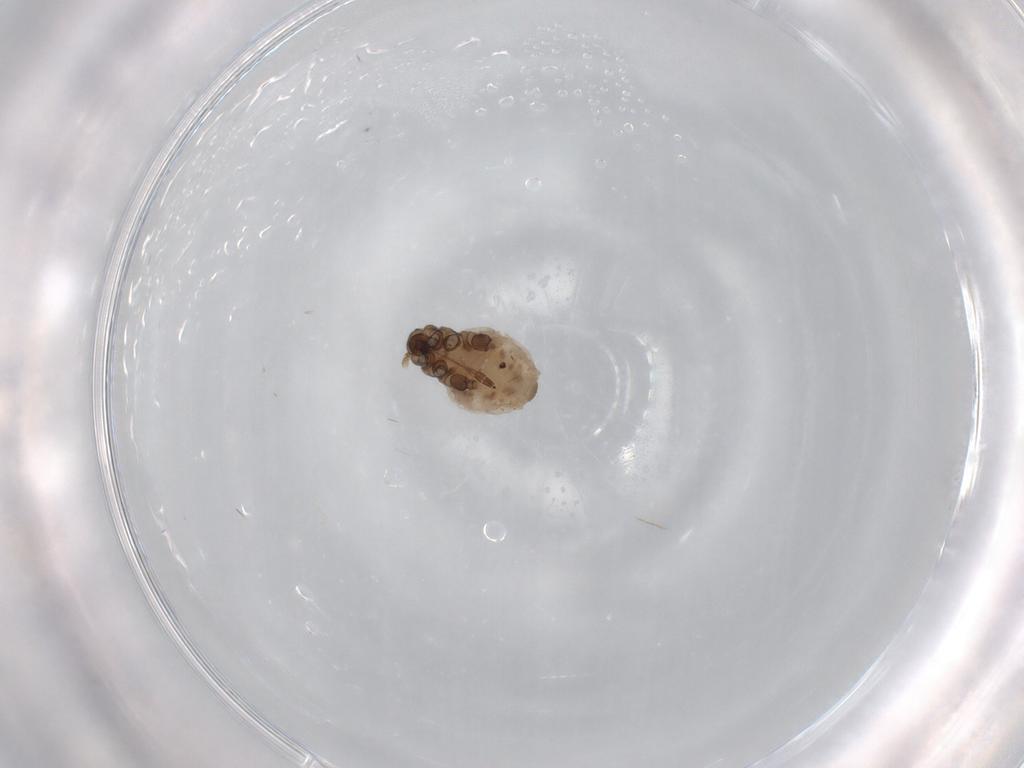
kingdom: Animalia
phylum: Arthropoda
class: Insecta
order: Hemiptera
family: Aphididae
